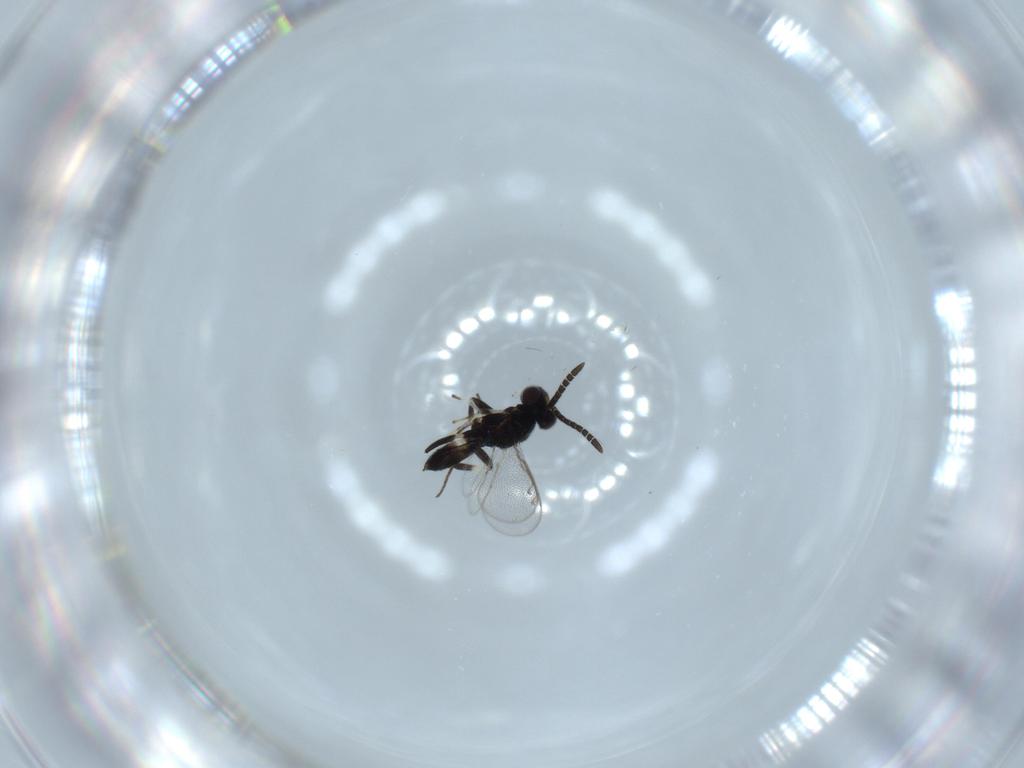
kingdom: Animalia
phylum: Arthropoda
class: Insecta
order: Hymenoptera
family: Eupelmidae
